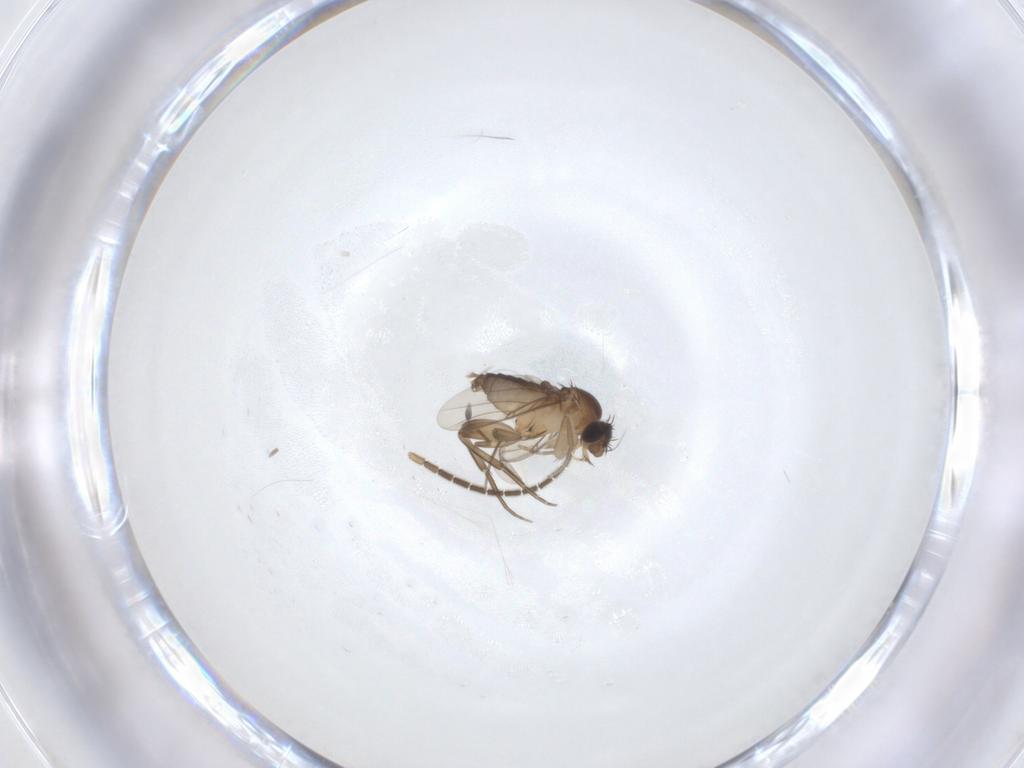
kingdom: Animalia
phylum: Arthropoda
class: Insecta
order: Diptera
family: Phoridae
